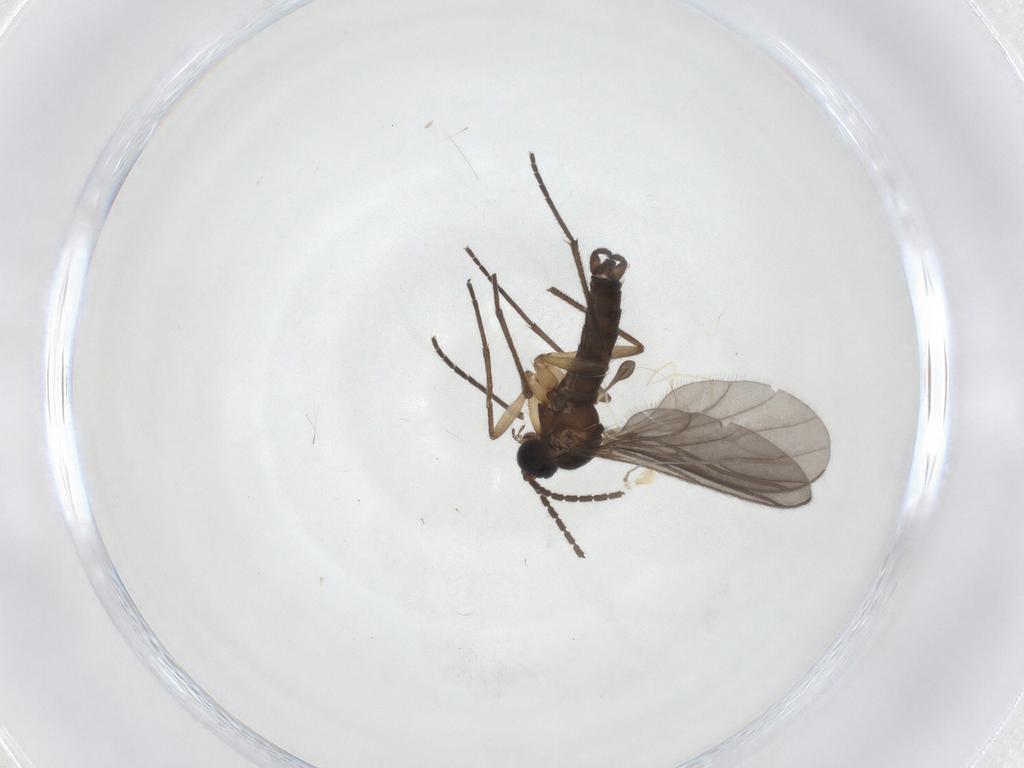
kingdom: Animalia
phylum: Arthropoda
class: Insecta
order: Diptera
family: Sciaridae
